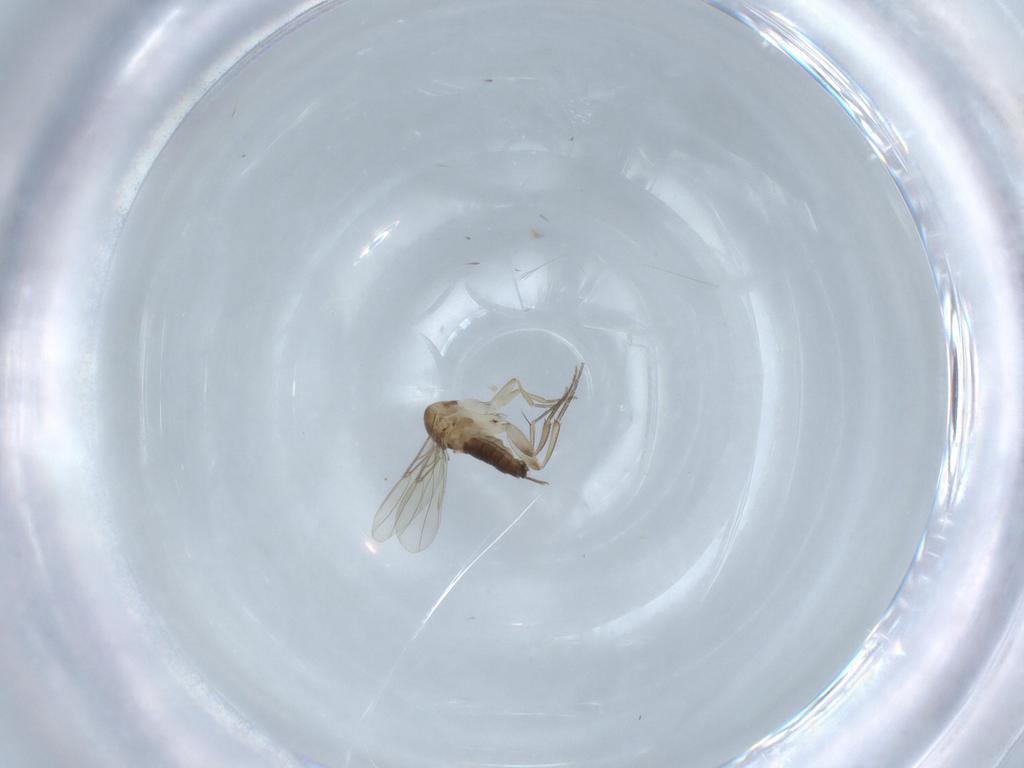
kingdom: Animalia
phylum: Arthropoda
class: Insecta
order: Diptera
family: Phoridae
